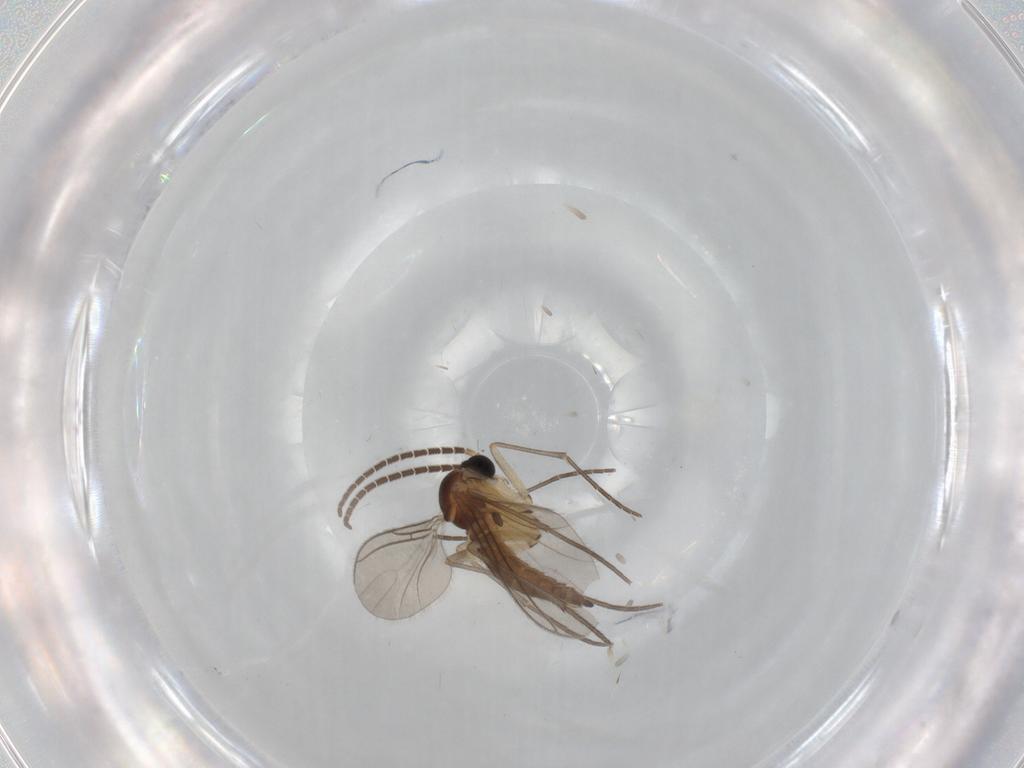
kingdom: Animalia
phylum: Arthropoda
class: Insecta
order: Diptera
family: Sciaridae
